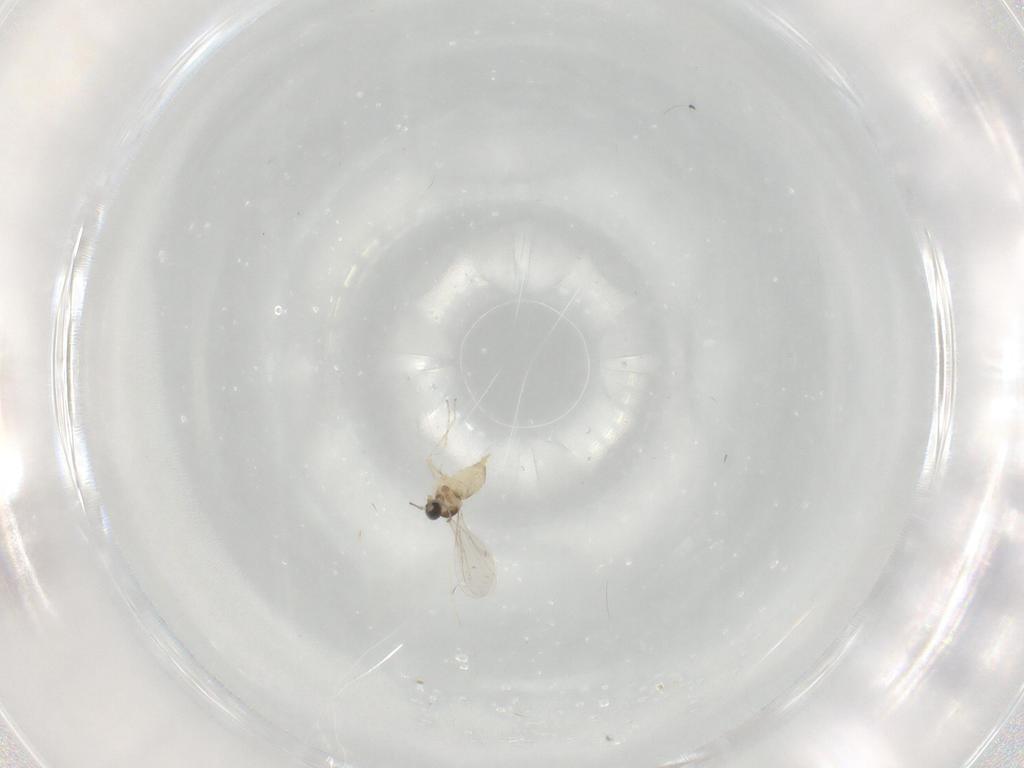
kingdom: Animalia
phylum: Arthropoda
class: Insecta
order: Diptera
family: Cecidomyiidae
